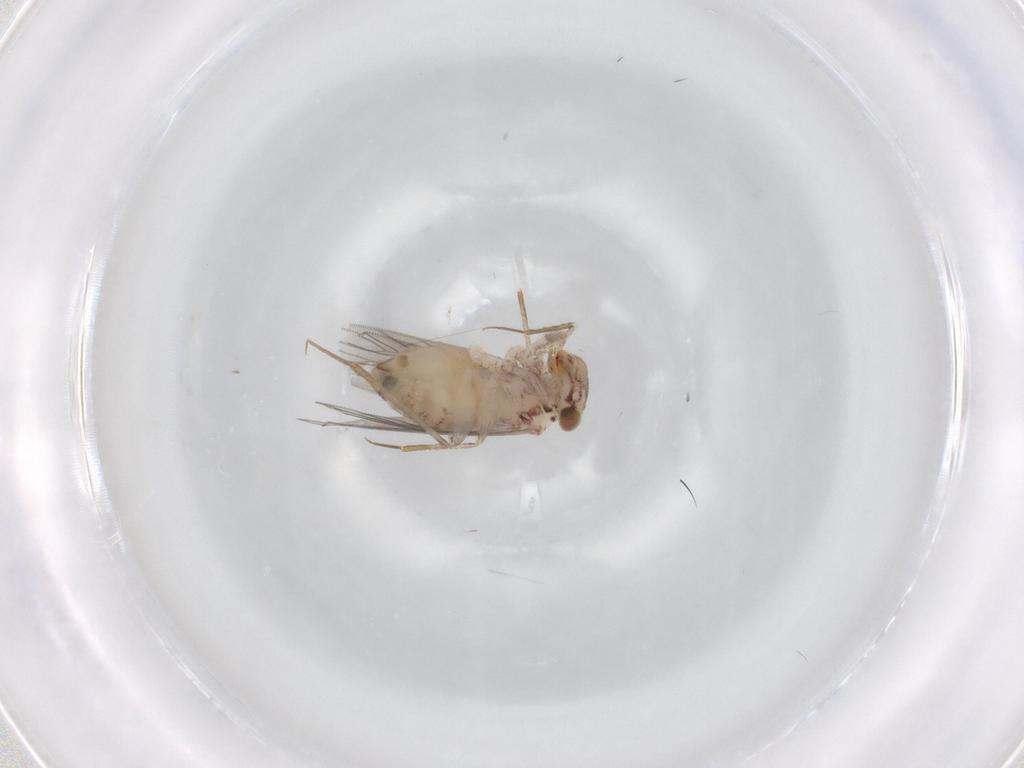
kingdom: Animalia
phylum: Arthropoda
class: Insecta
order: Psocodea
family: Lepidopsocidae
